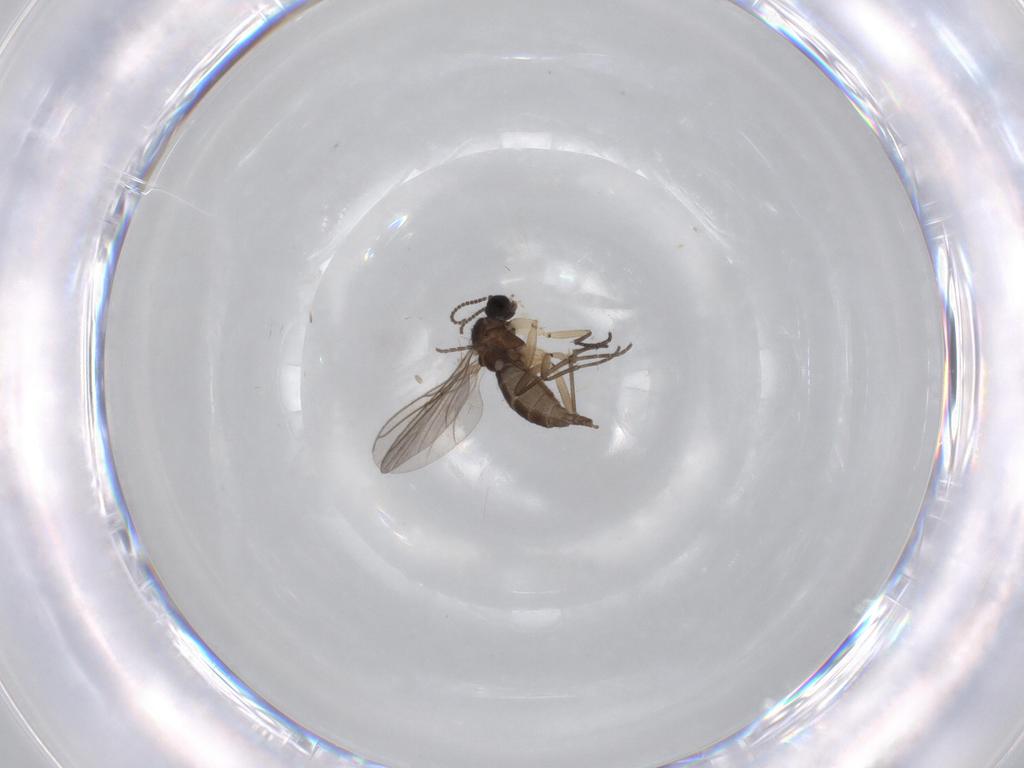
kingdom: Animalia
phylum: Arthropoda
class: Insecta
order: Diptera
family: Sciaridae
